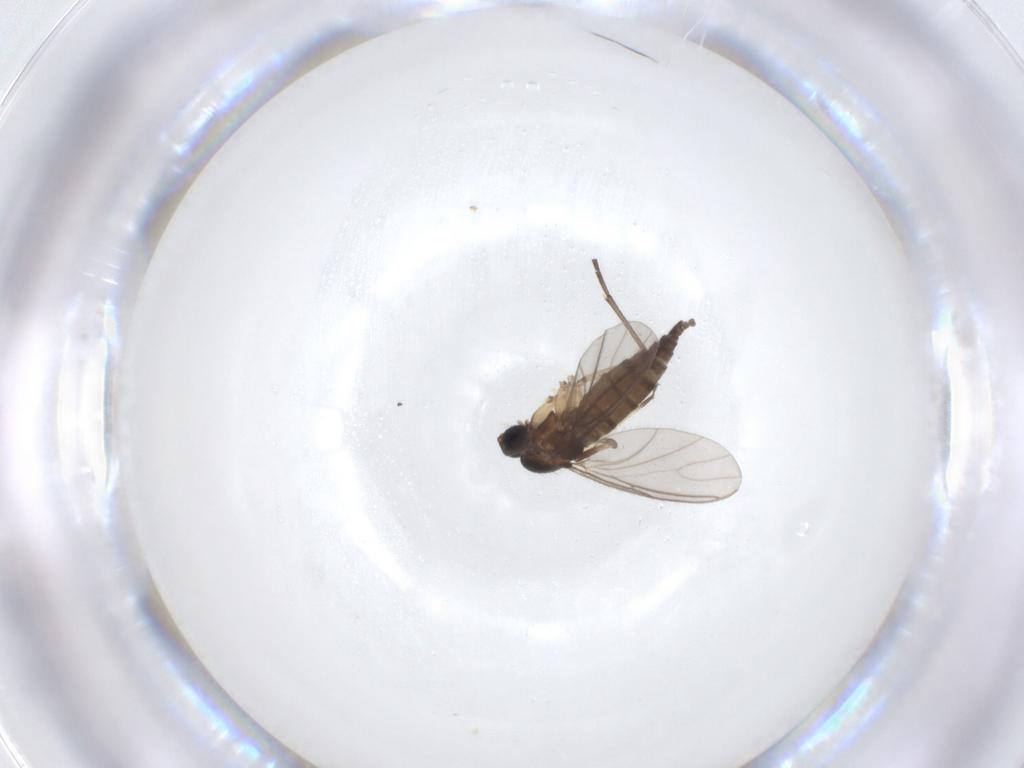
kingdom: Animalia
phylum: Arthropoda
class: Insecta
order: Diptera
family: Sciaridae
